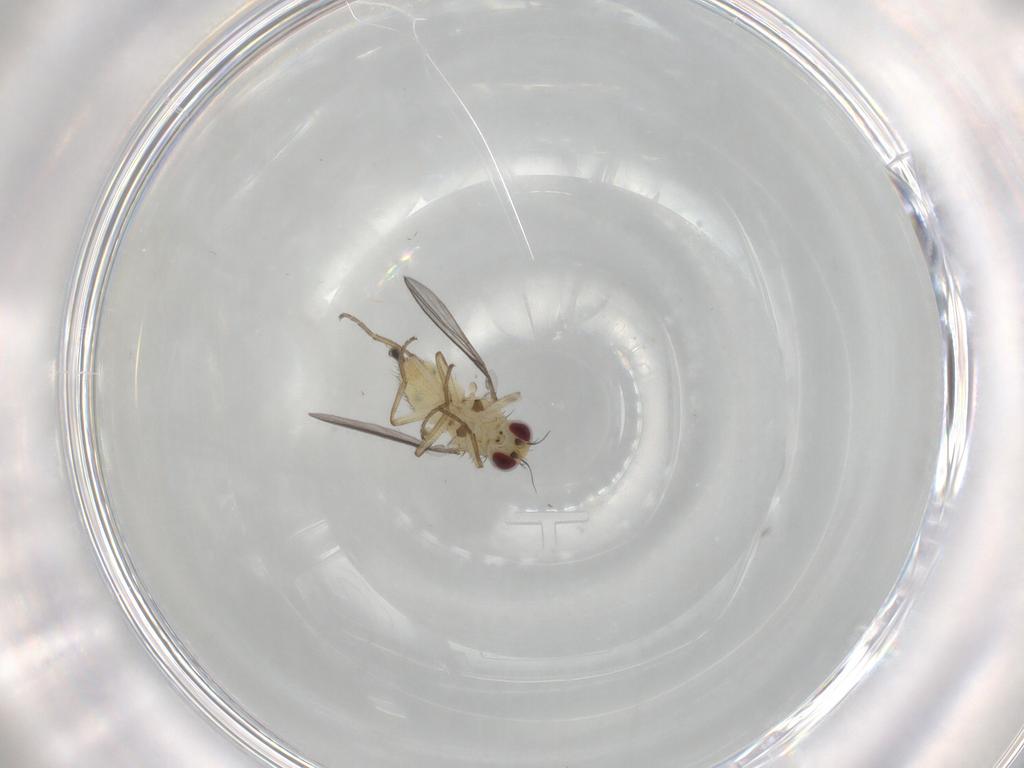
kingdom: Animalia
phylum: Arthropoda
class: Insecta
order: Diptera
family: Agromyzidae
